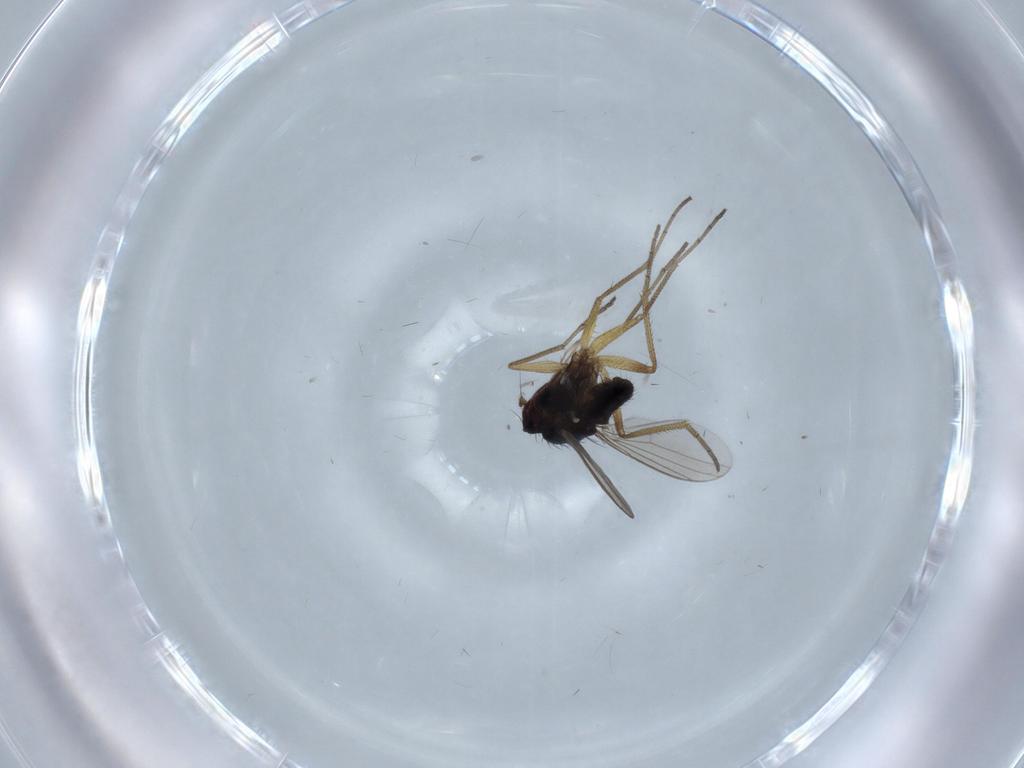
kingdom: Animalia
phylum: Arthropoda
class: Insecta
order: Diptera
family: Dolichopodidae
